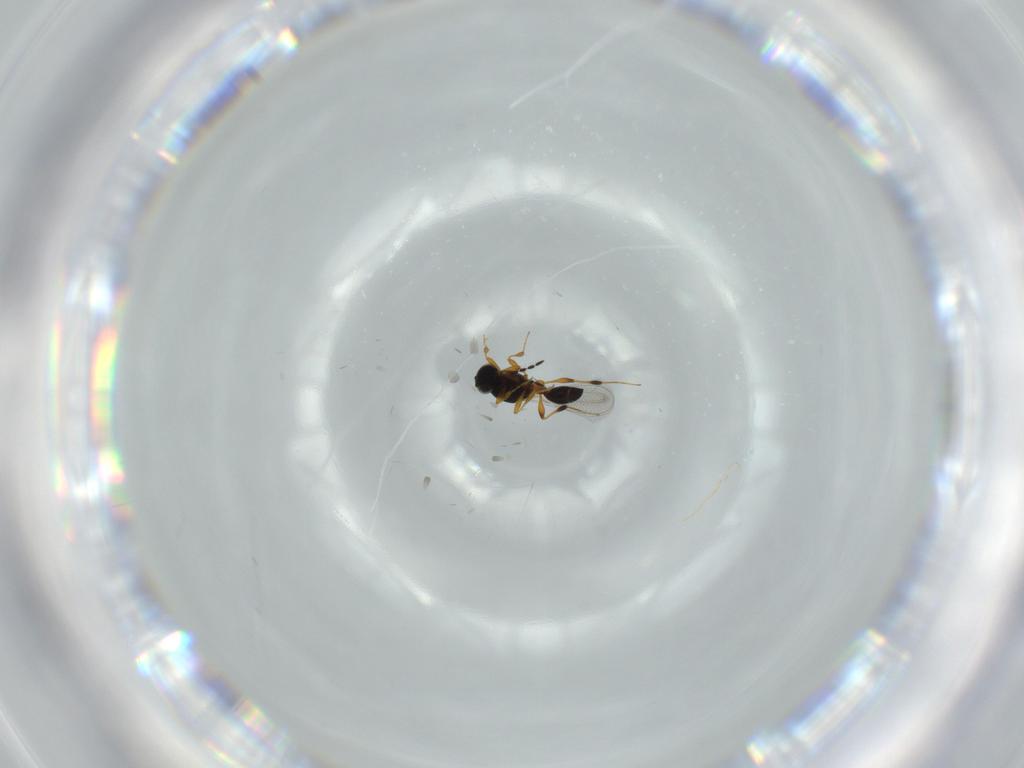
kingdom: Animalia
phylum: Arthropoda
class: Insecta
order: Hymenoptera
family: Platygastridae
